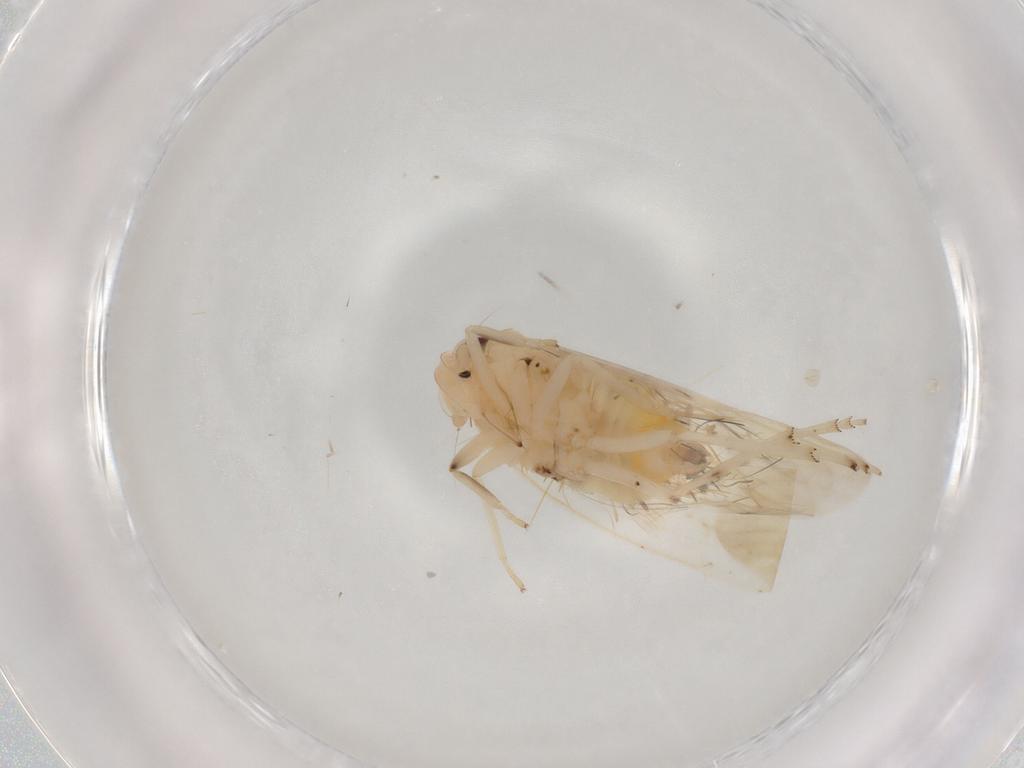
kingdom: Animalia
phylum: Arthropoda
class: Insecta
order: Hemiptera
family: Achilidae
